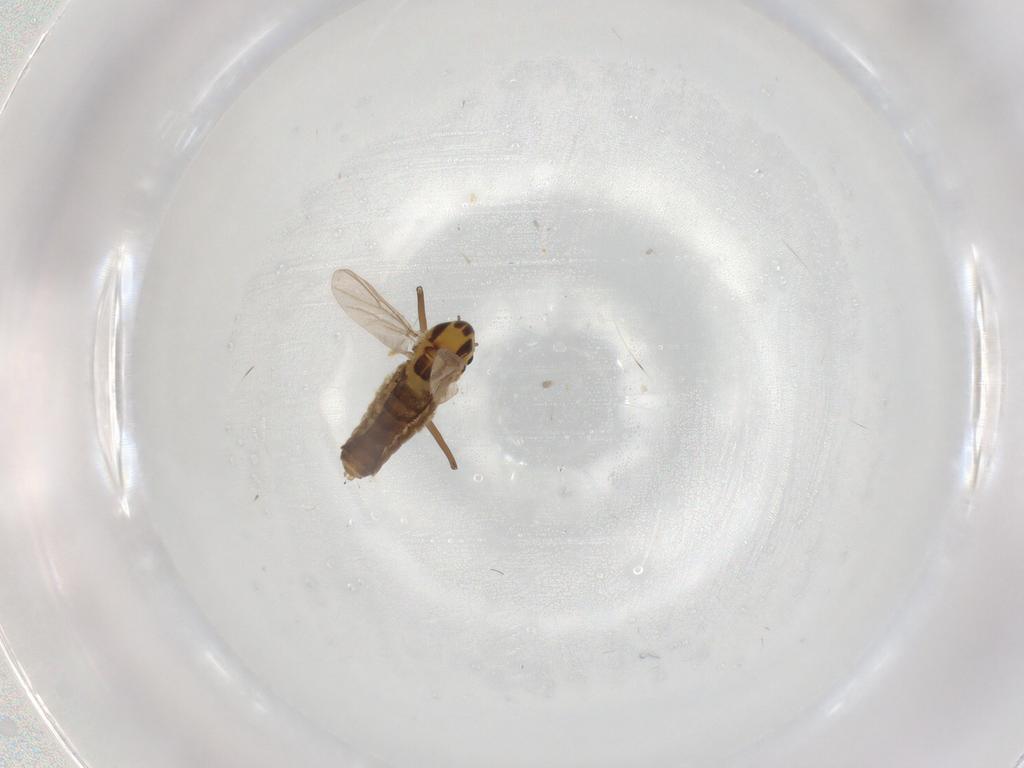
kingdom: Animalia
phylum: Arthropoda
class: Insecta
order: Diptera
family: Chironomidae
